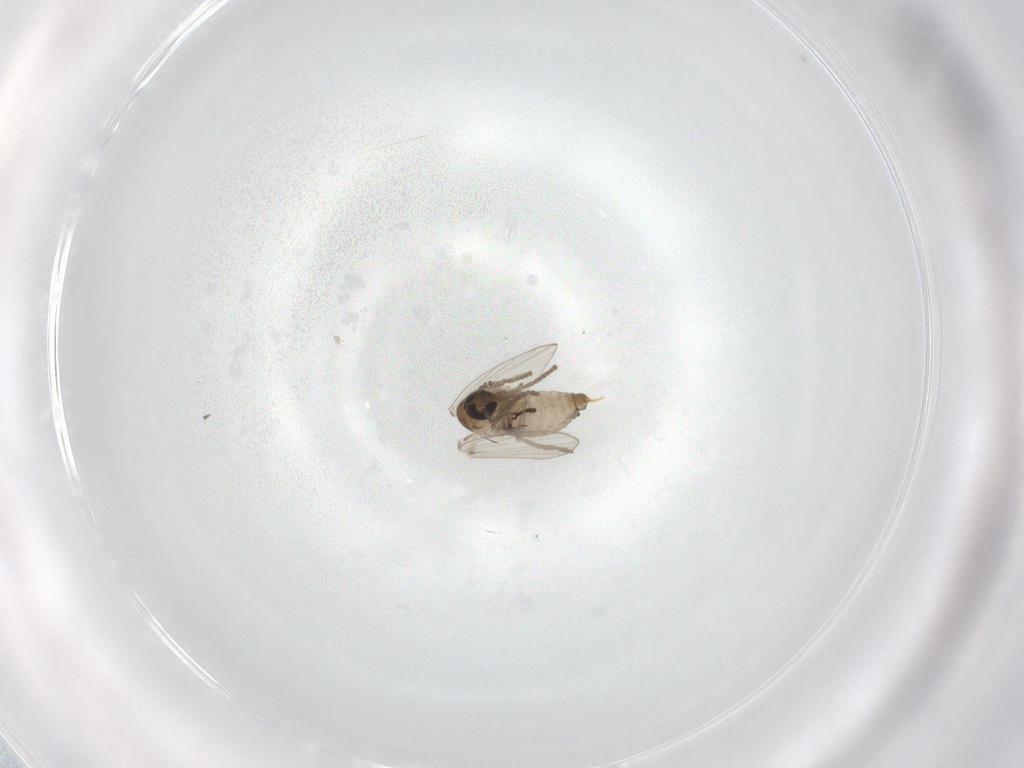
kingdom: Animalia
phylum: Arthropoda
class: Insecta
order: Diptera
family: Psychodidae
